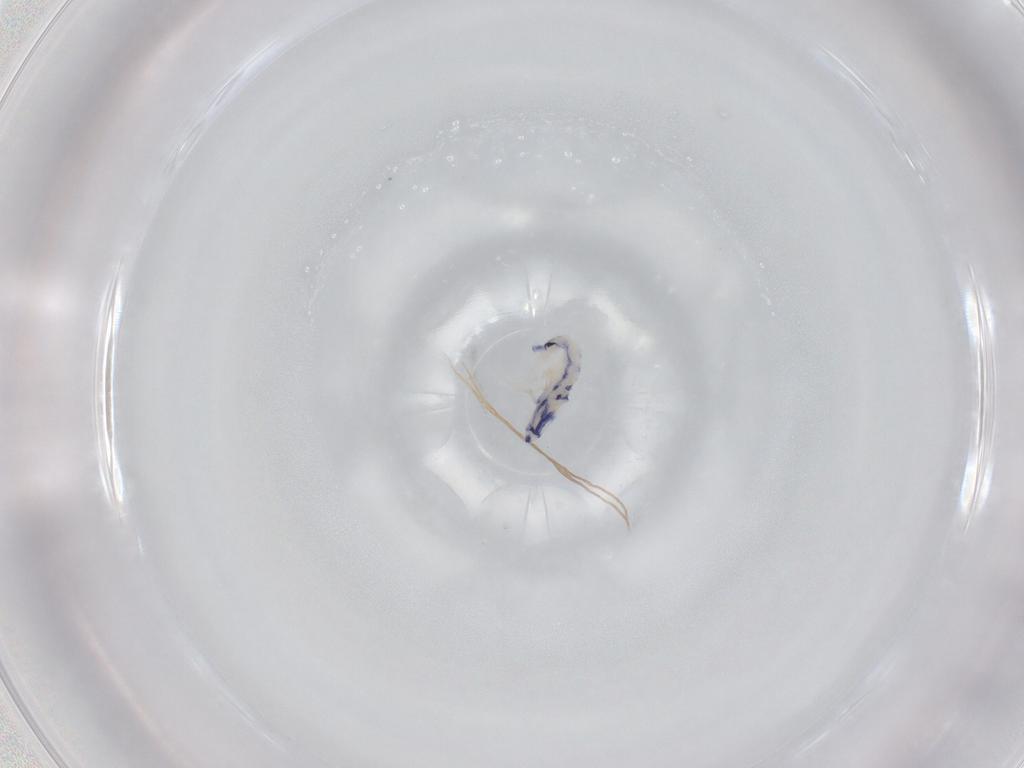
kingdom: Animalia
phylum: Arthropoda
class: Collembola
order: Entomobryomorpha
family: Entomobryidae
